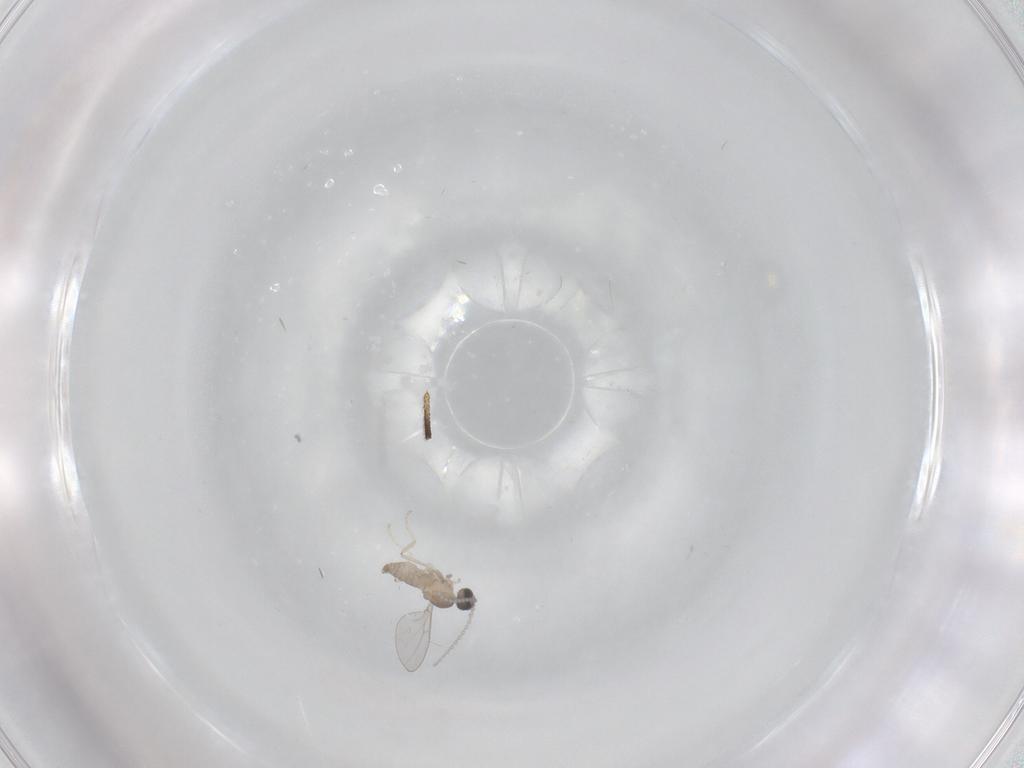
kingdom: Animalia
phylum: Arthropoda
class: Insecta
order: Diptera
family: Cecidomyiidae
